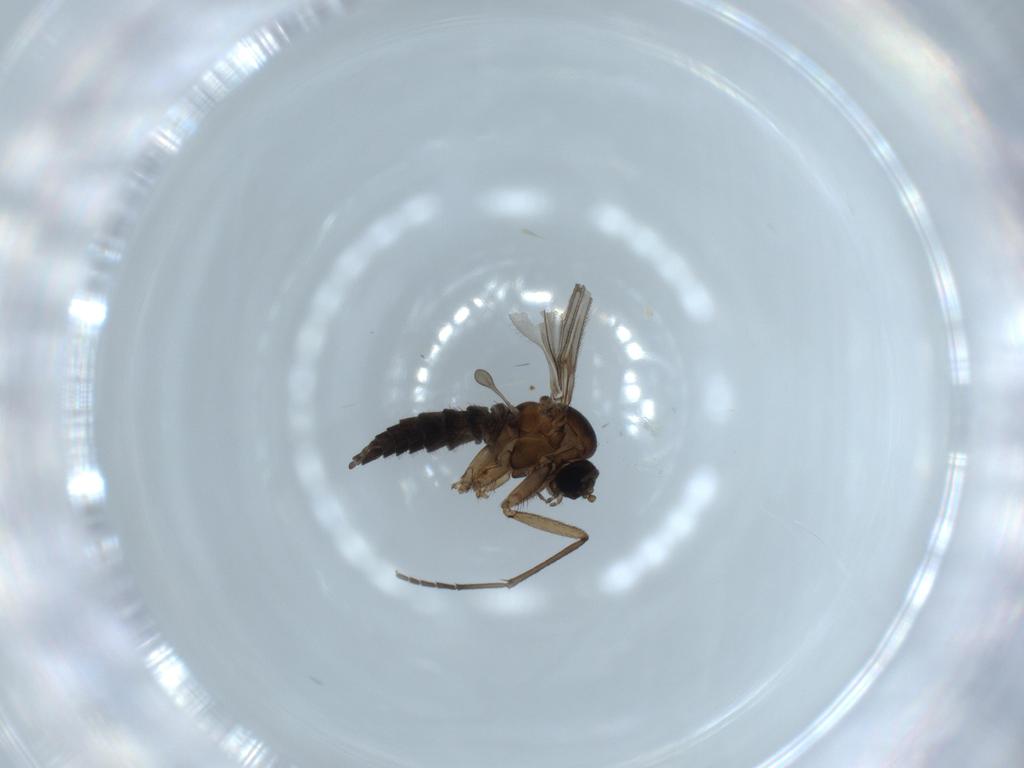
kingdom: Animalia
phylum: Arthropoda
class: Insecta
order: Diptera
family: Sciaridae
